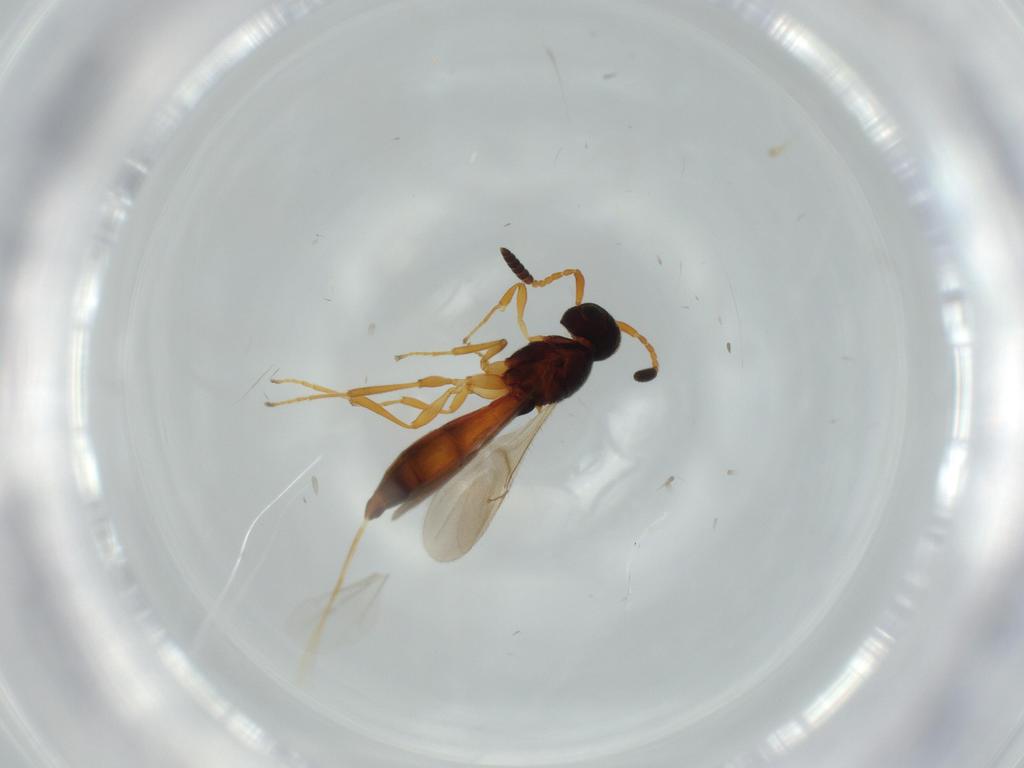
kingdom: Animalia
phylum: Arthropoda
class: Insecta
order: Hymenoptera
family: Scelionidae
